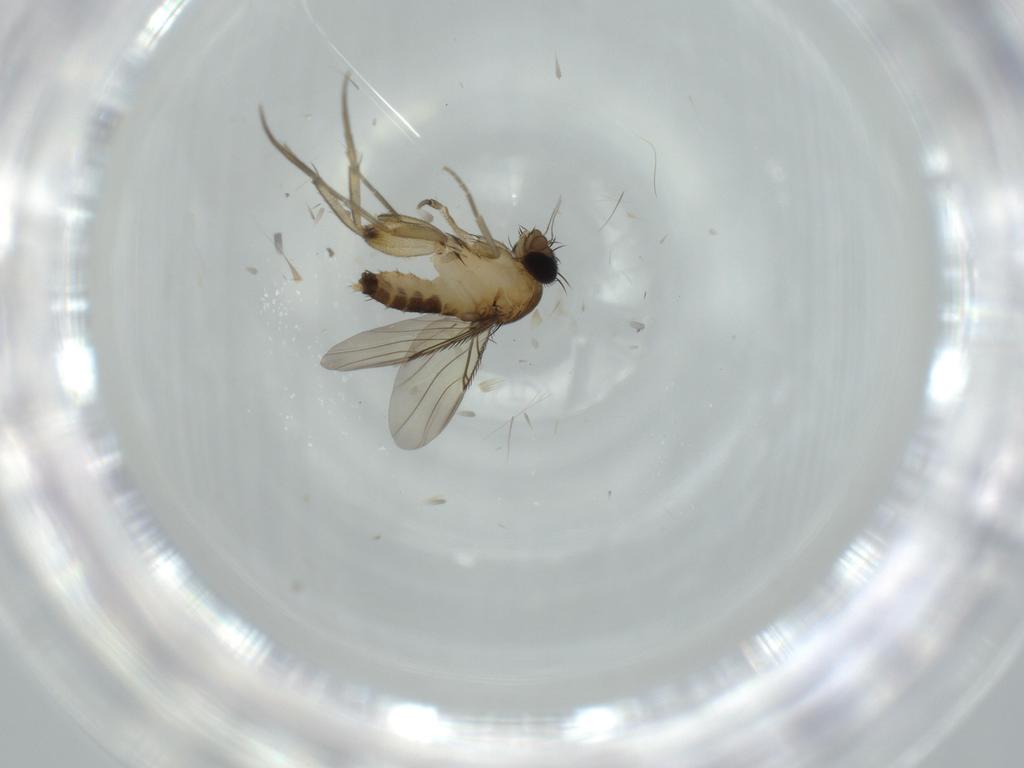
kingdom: Animalia
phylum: Arthropoda
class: Insecta
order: Diptera
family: Phoridae
